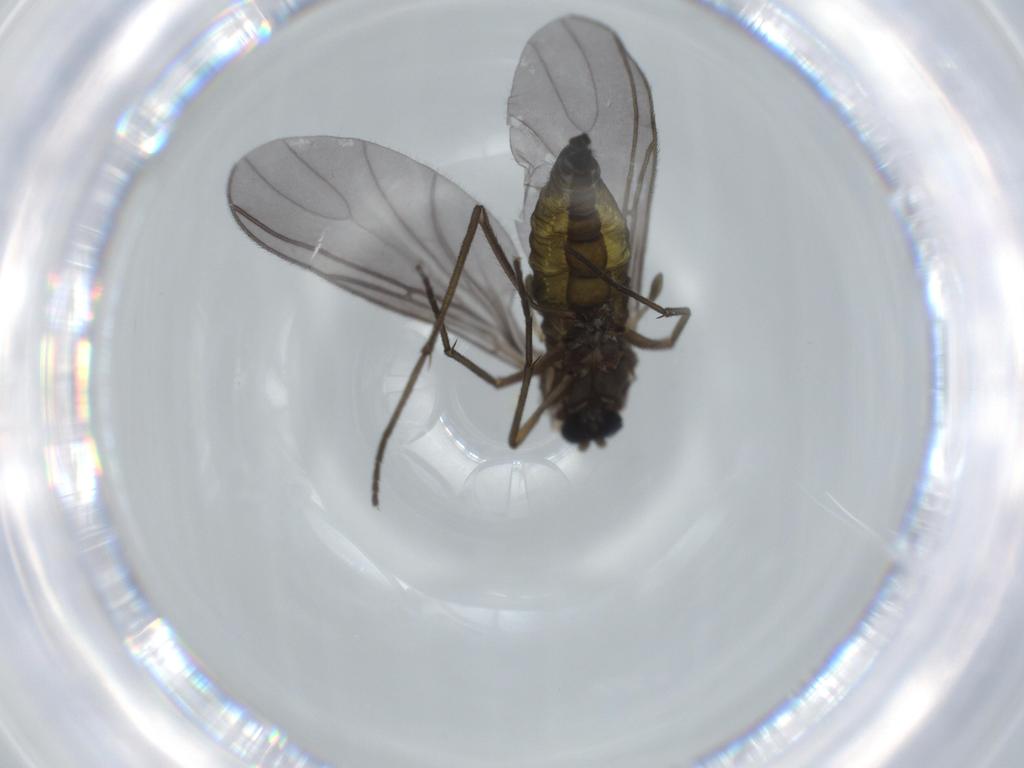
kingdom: Animalia
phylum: Arthropoda
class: Insecta
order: Diptera
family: Sciaridae
